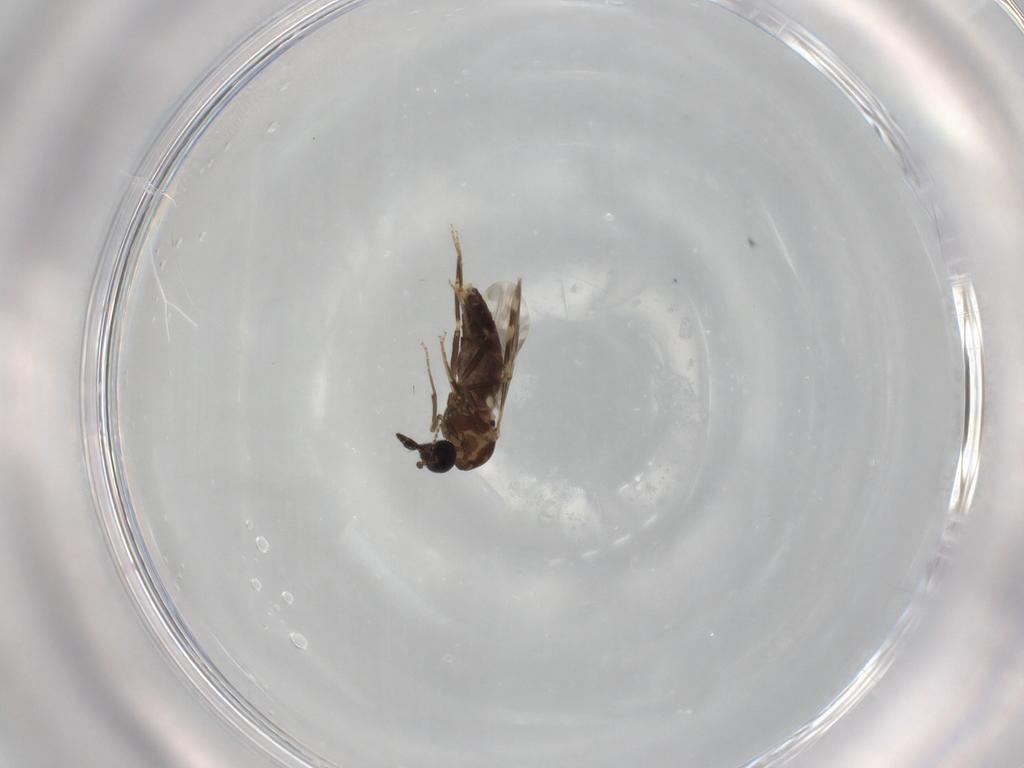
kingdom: Animalia
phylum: Arthropoda
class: Insecta
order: Diptera
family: Ceratopogonidae
